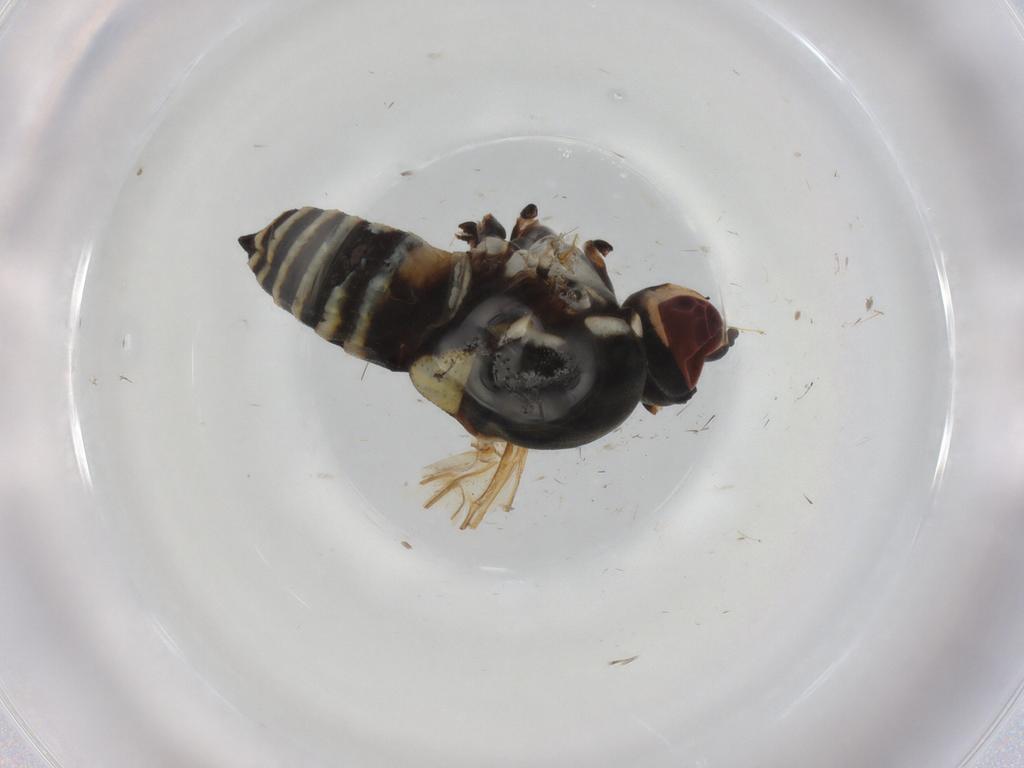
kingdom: Animalia
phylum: Arthropoda
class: Insecta
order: Diptera
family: Bombyliidae
